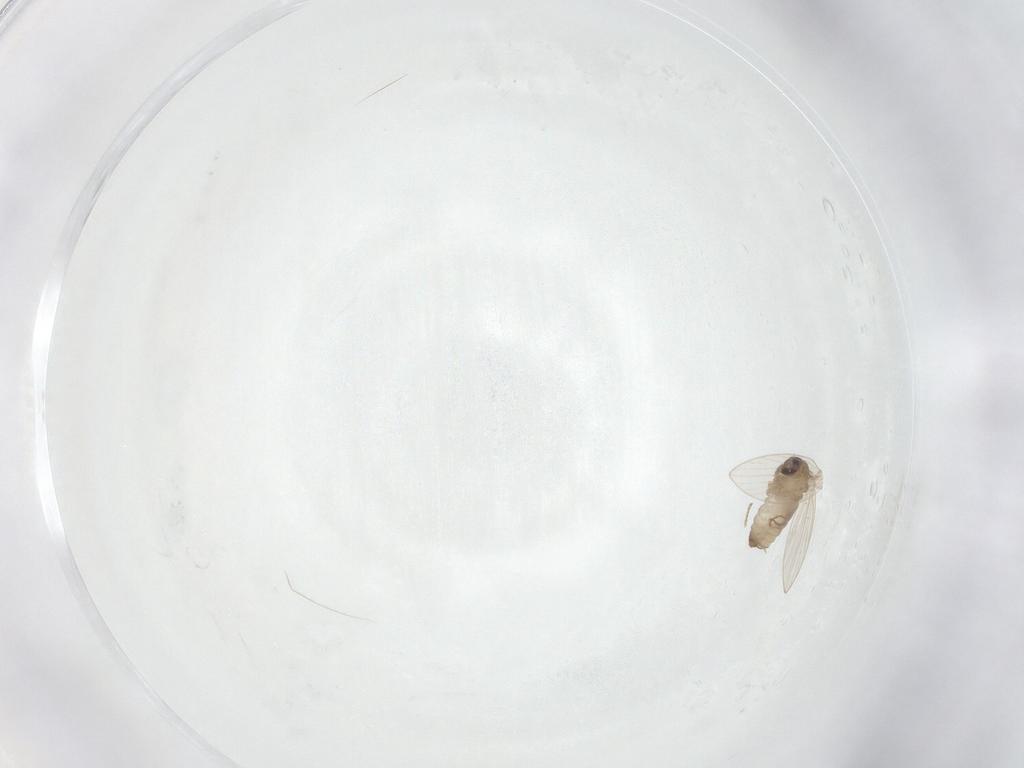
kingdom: Animalia
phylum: Arthropoda
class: Insecta
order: Diptera
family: Psychodidae
